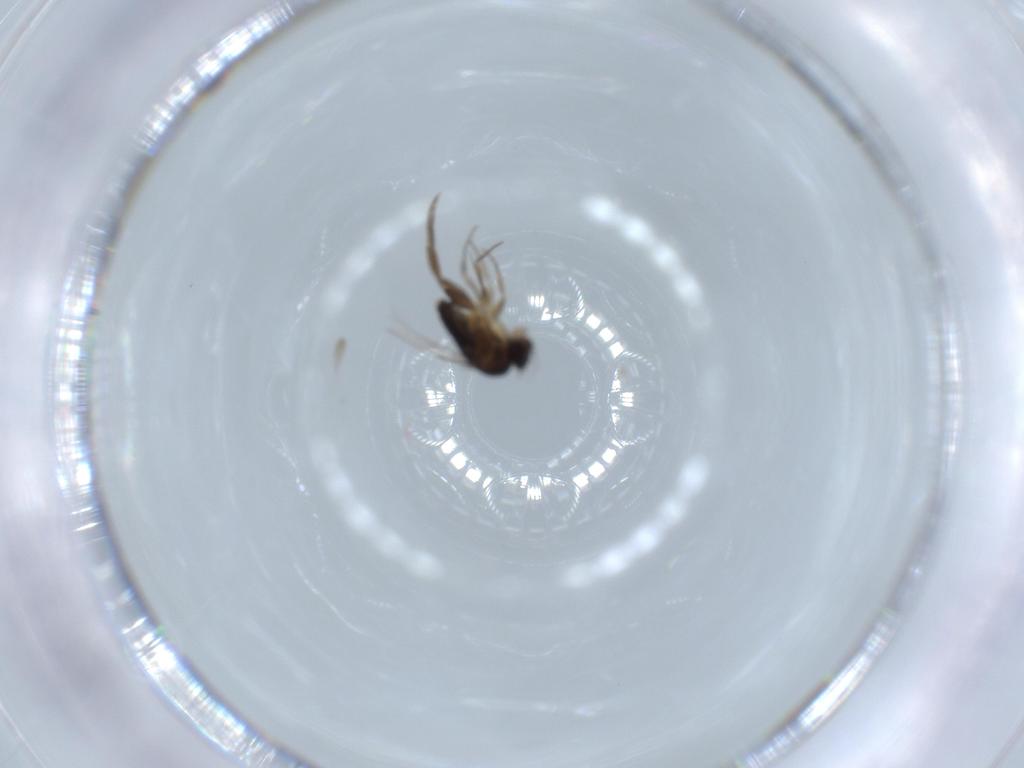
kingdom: Animalia
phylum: Arthropoda
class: Insecta
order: Diptera
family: Phoridae
